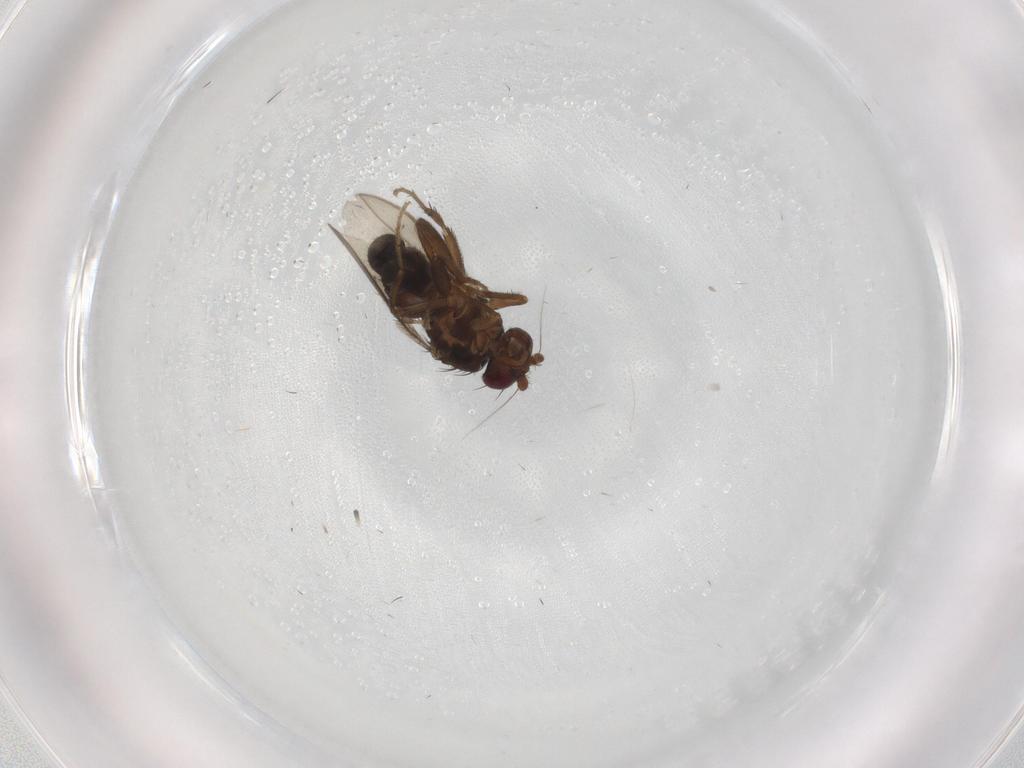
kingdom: Animalia
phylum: Arthropoda
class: Insecta
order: Diptera
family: Sphaeroceridae
